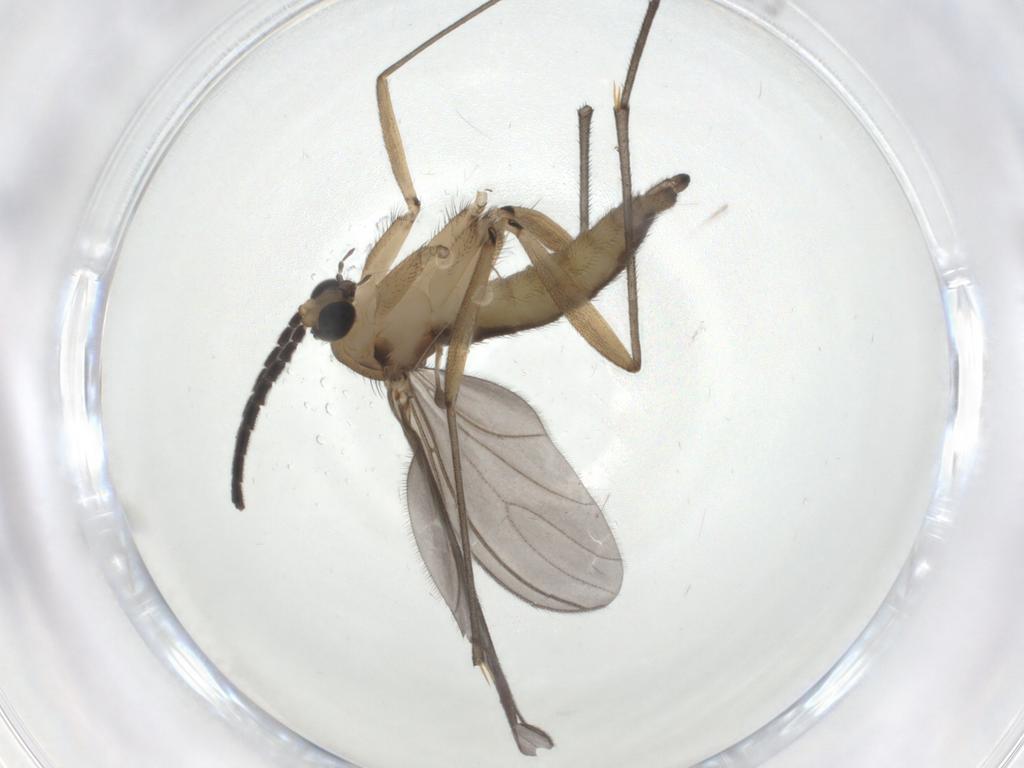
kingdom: Animalia
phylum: Arthropoda
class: Insecta
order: Diptera
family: Sciaridae
